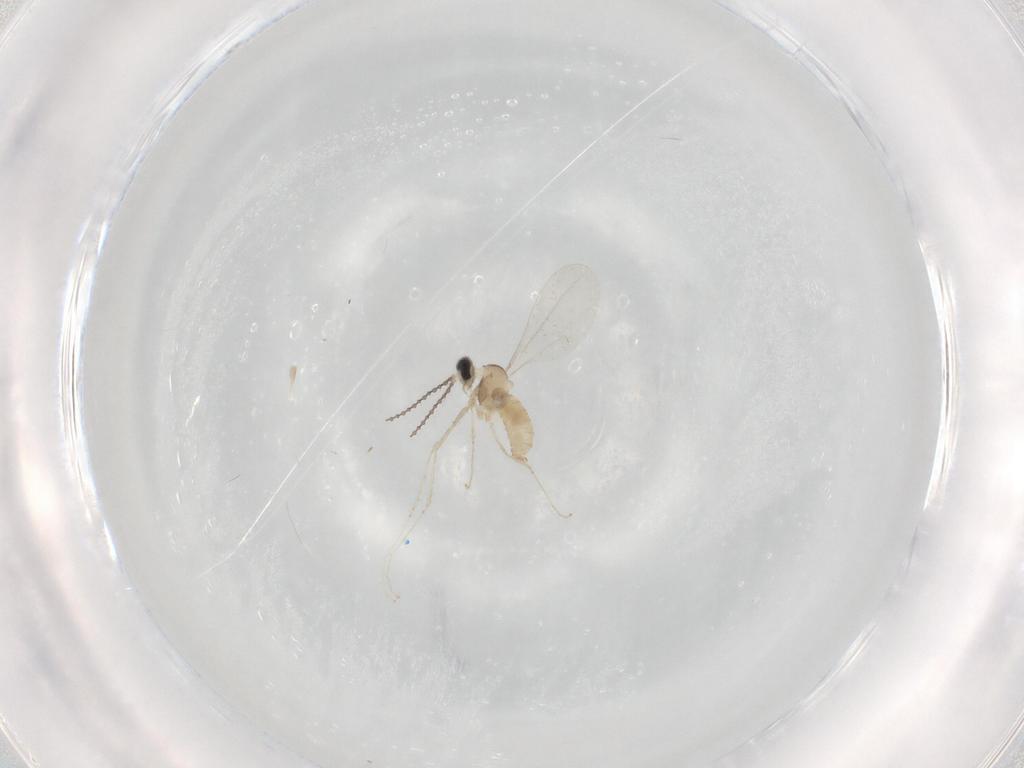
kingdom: Animalia
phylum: Arthropoda
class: Insecta
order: Diptera
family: Cecidomyiidae
